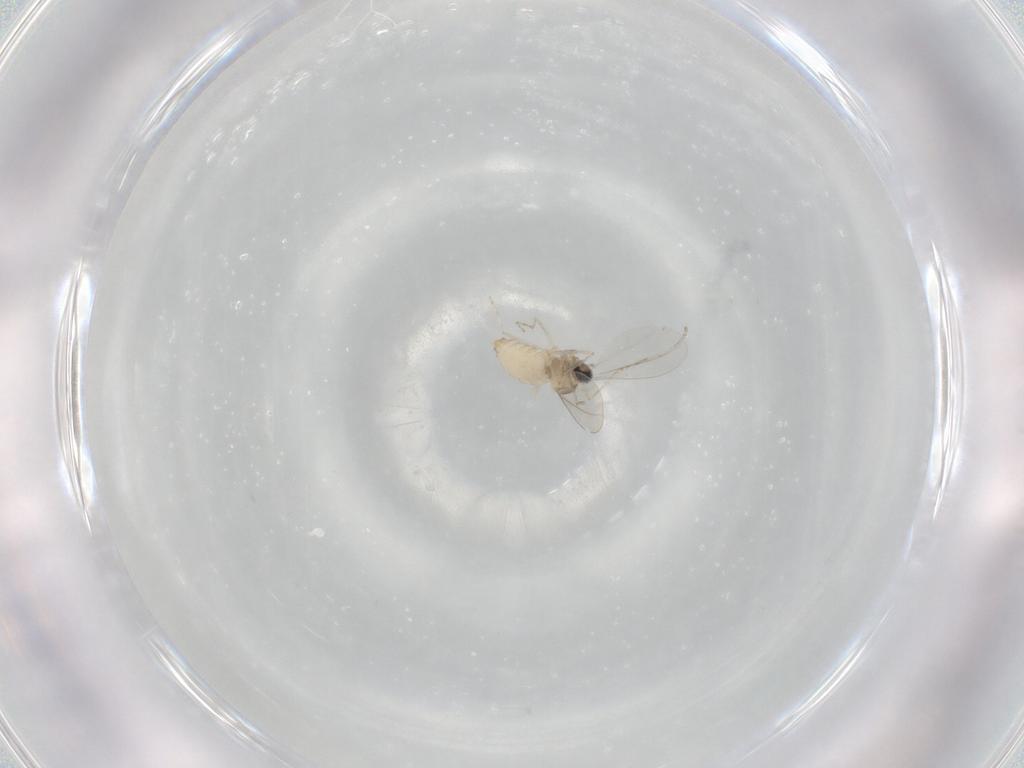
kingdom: Animalia
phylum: Arthropoda
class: Insecta
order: Diptera
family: Cecidomyiidae
